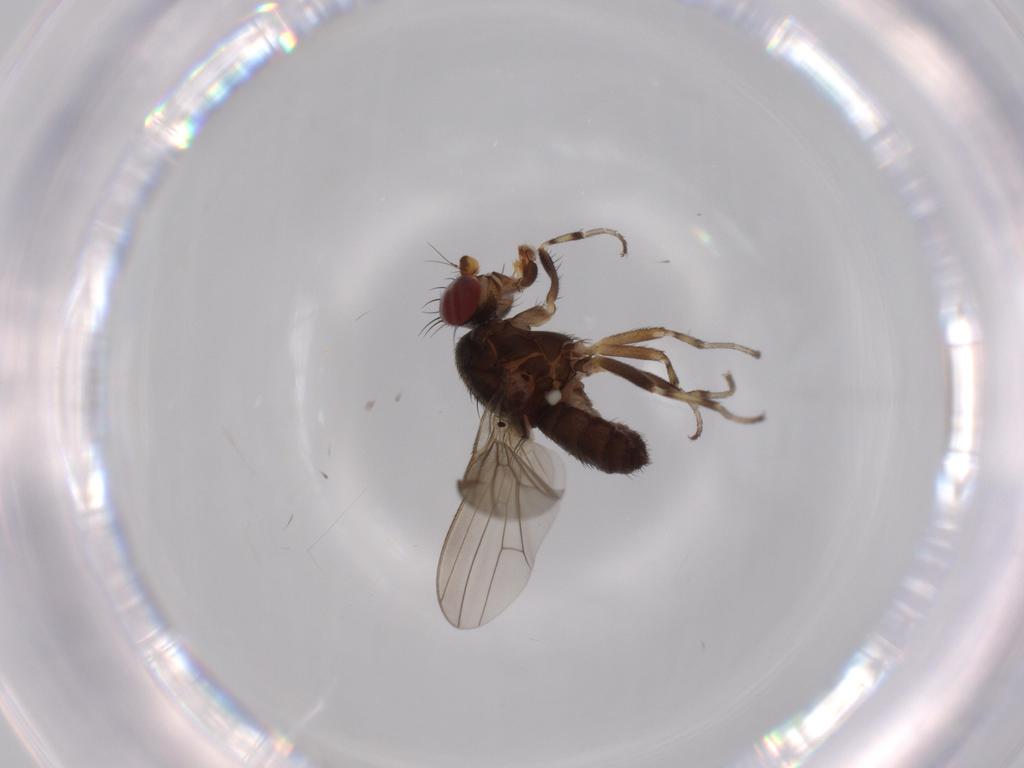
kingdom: Animalia
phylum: Arthropoda
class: Insecta
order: Diptera
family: Heleomyzidae
